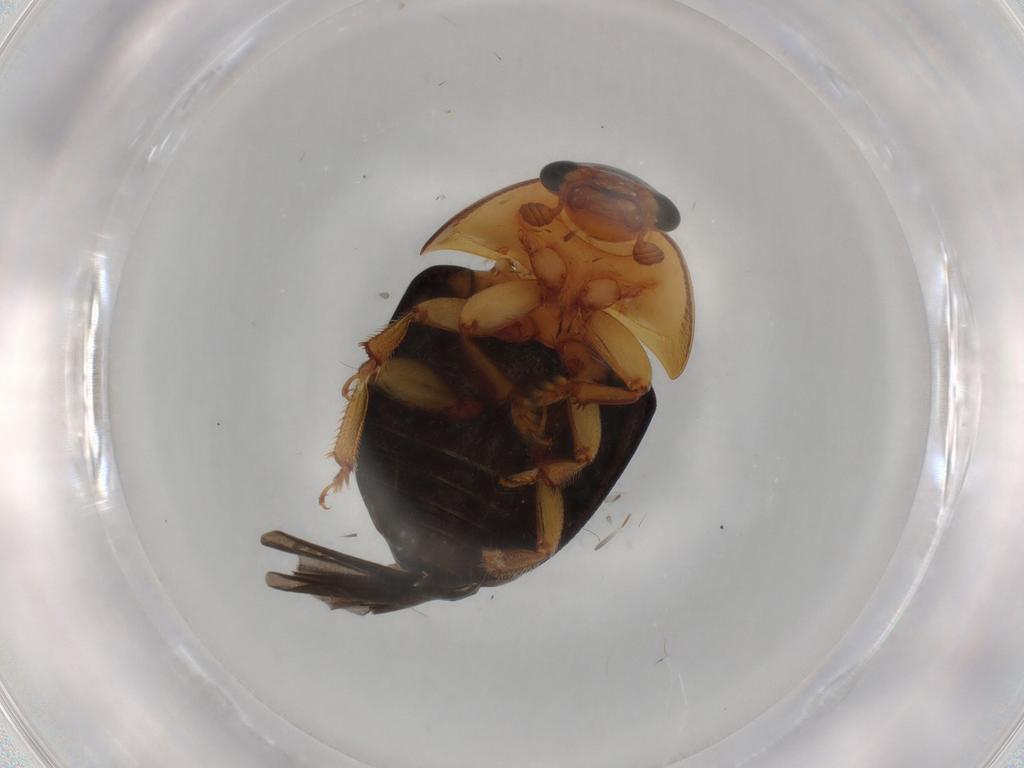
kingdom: Animalia
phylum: Arthropoda
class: Insecta
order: Coleoptera
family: Nitidulidae
